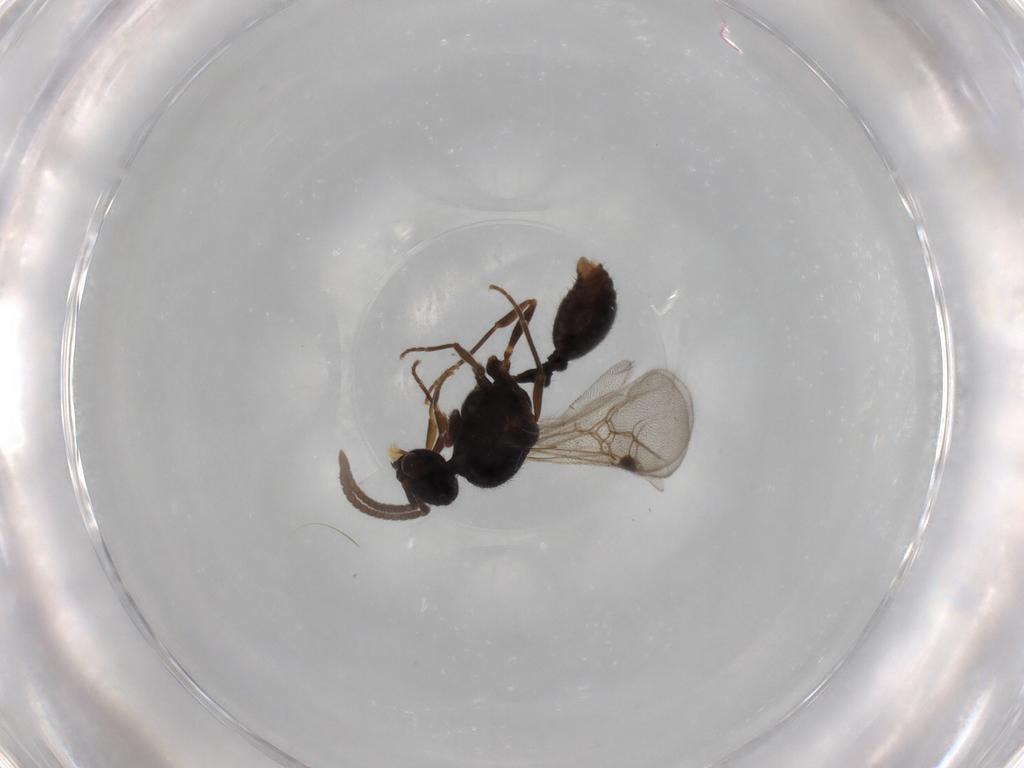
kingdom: Animalia
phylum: Arthropoda
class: Insecta
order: Hymenoptera
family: Formicidae
